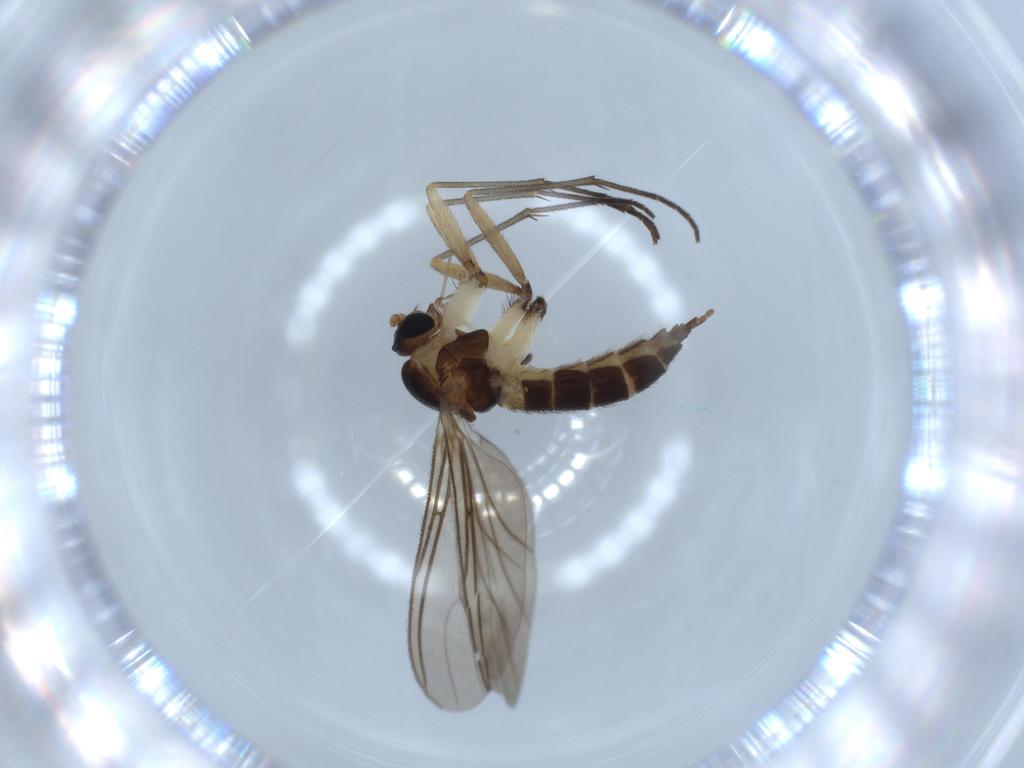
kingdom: Animalia
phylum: Arthropoda
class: Insecta
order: Diptera
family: Sciaridae
